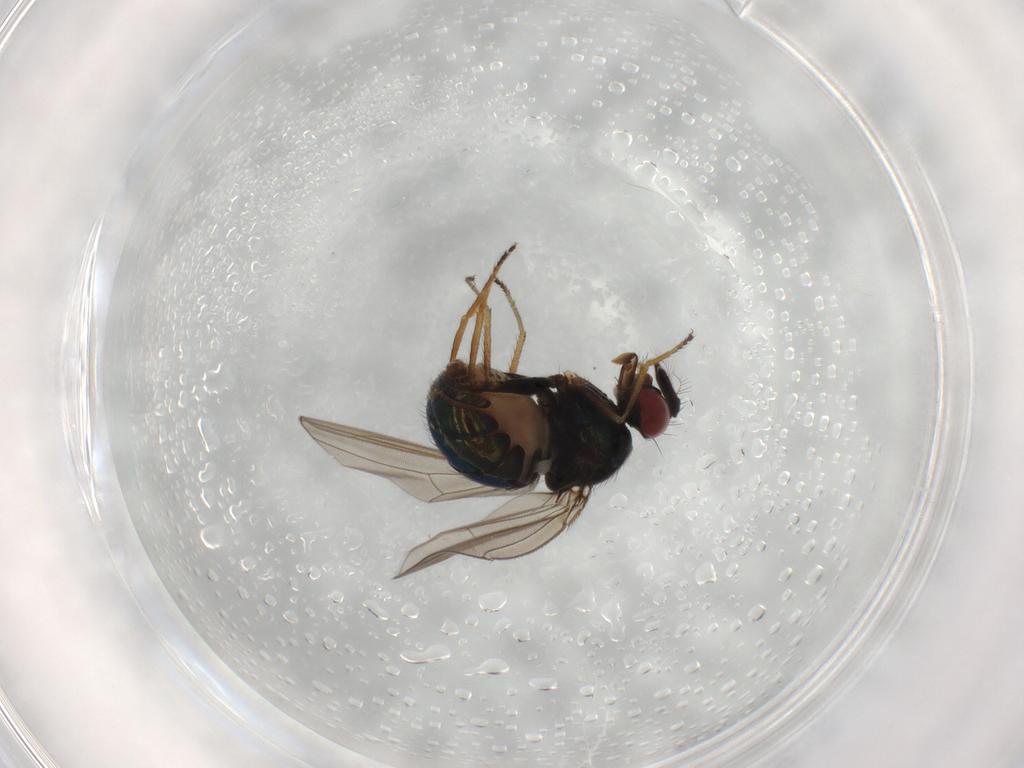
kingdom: Animalia
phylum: Arthropoda
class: Insecta
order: Diptera
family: Ephydridae
